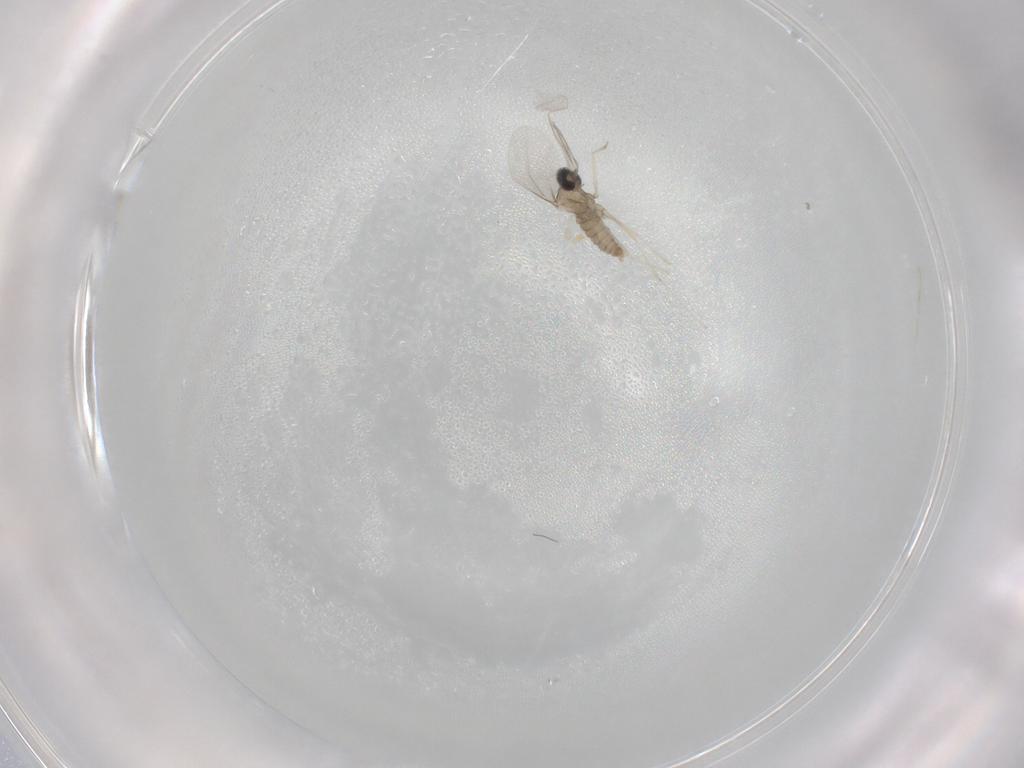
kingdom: Animalia
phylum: Arthropoda
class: Insecta
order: Diptera
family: Cecidomyiidae
